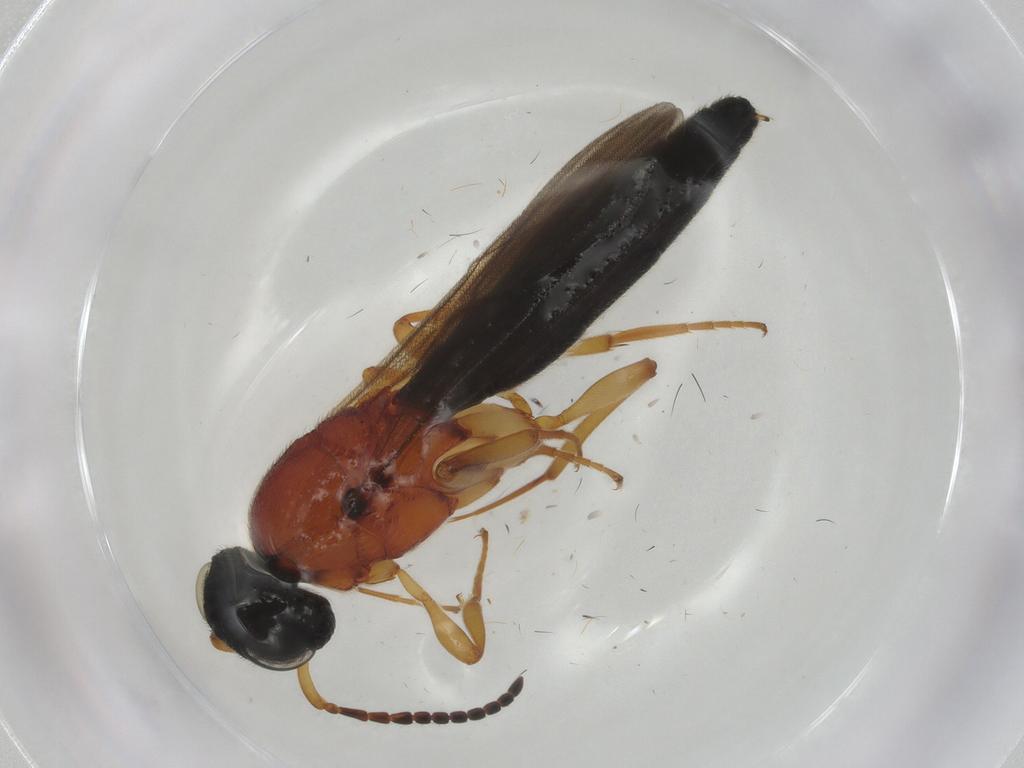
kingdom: Animalia
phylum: Arthropoda
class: Insecta
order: Hymenoptera
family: Scelionidae
